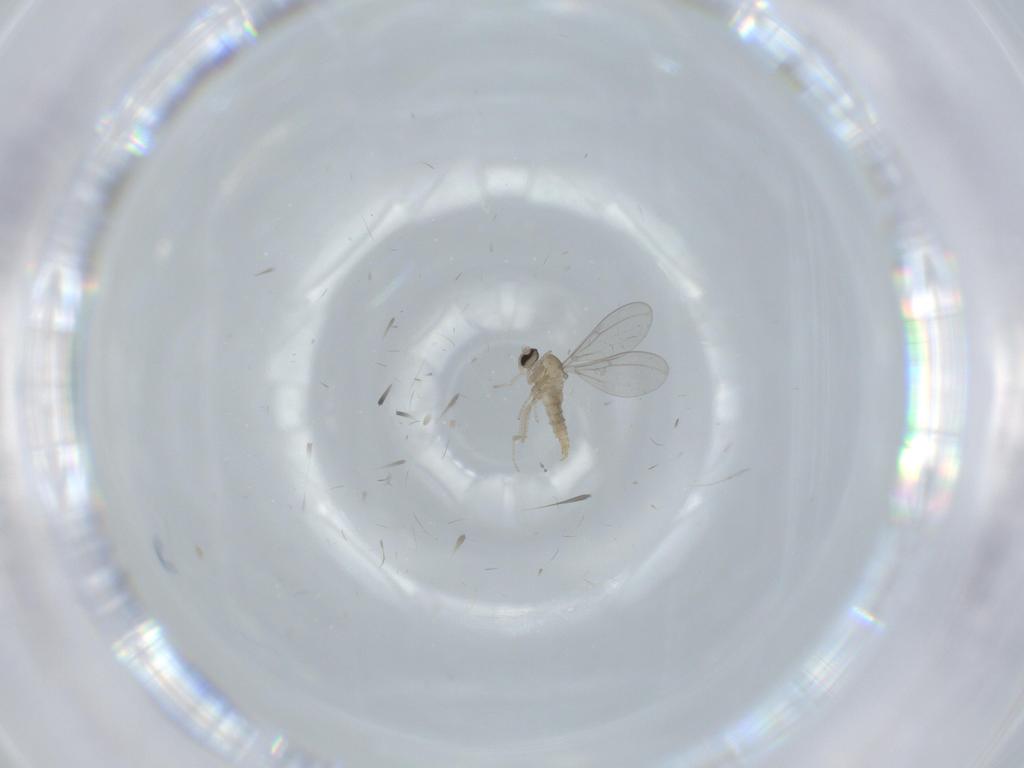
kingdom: Animalia
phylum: Arthropoda
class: Insecta
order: Diptera
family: Cecidomyiidae
